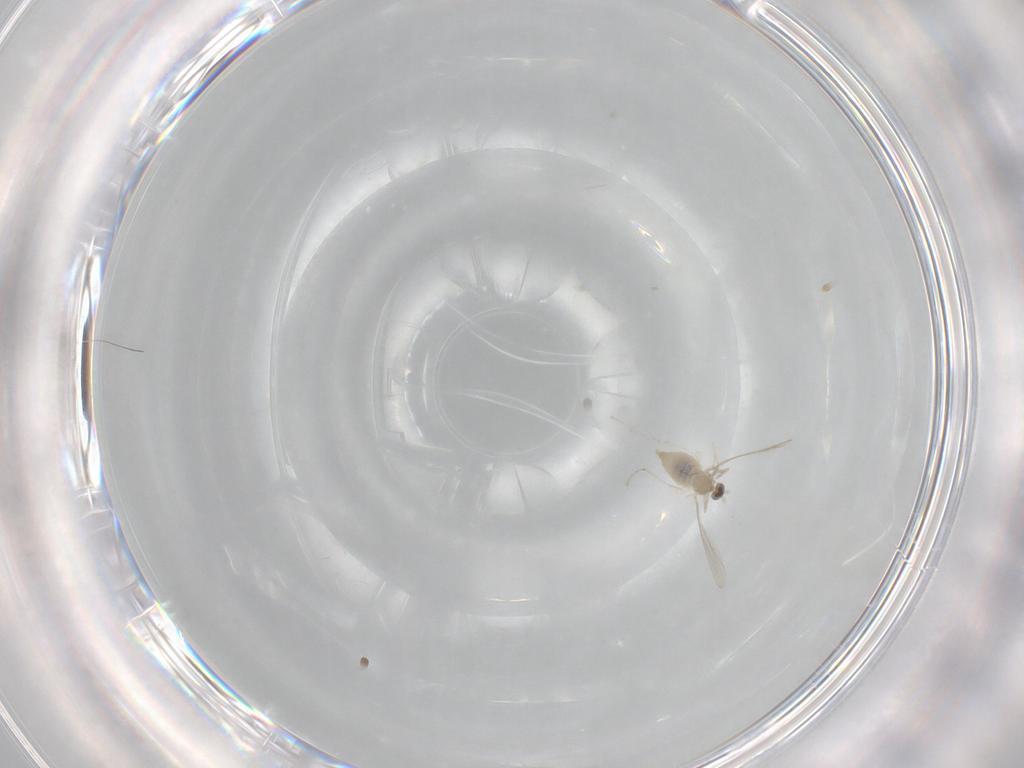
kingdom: Animalia
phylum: Arthropoda
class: Insecta
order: Diptera
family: Cecidomyiidae
